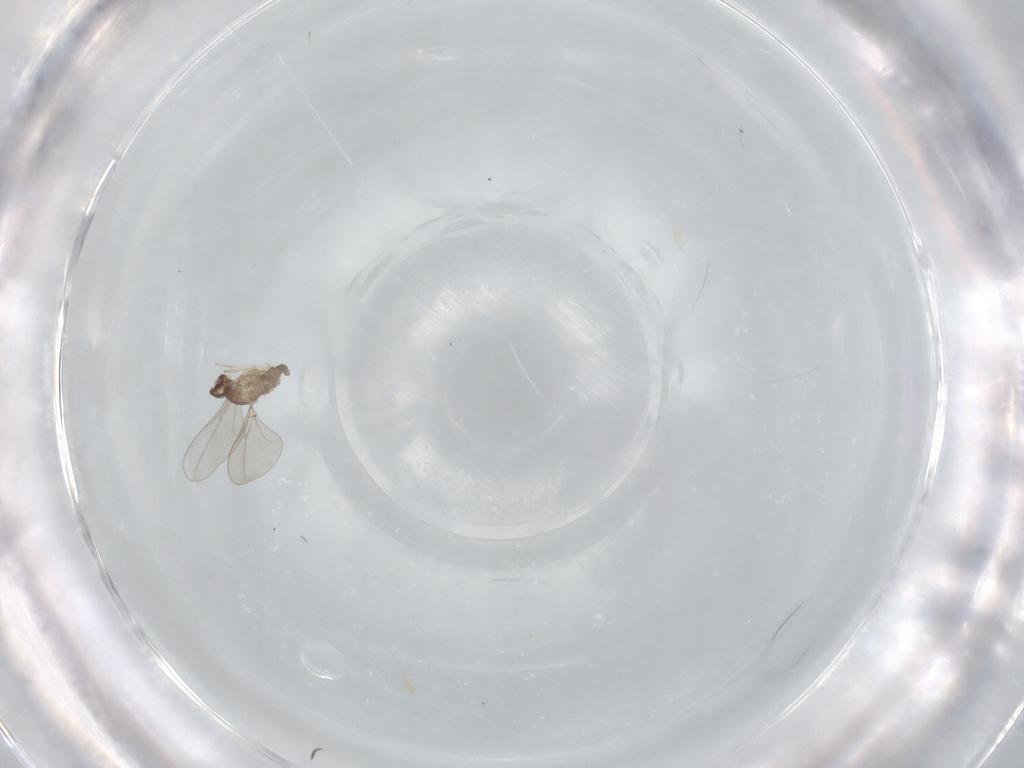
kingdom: Animalia
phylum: Arthropoda
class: Insecta
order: Diptera
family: Cecidomyiidae
